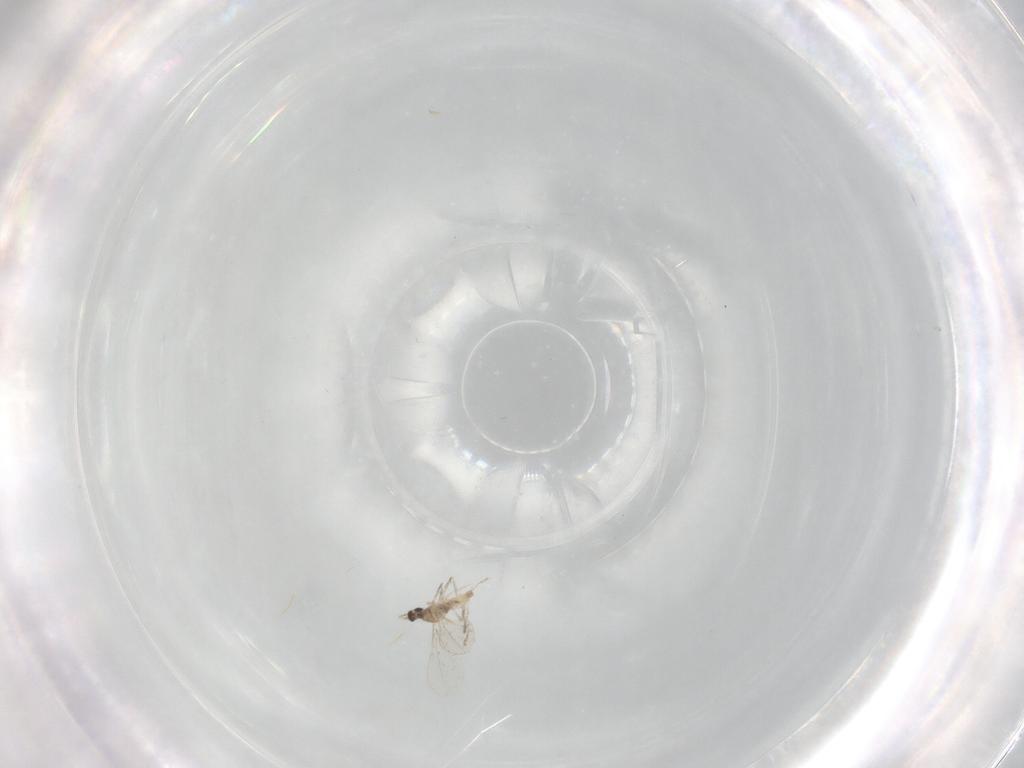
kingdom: Animalia
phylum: Arthropoda
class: Insecta
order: Diptera
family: Cecidomyiidae
